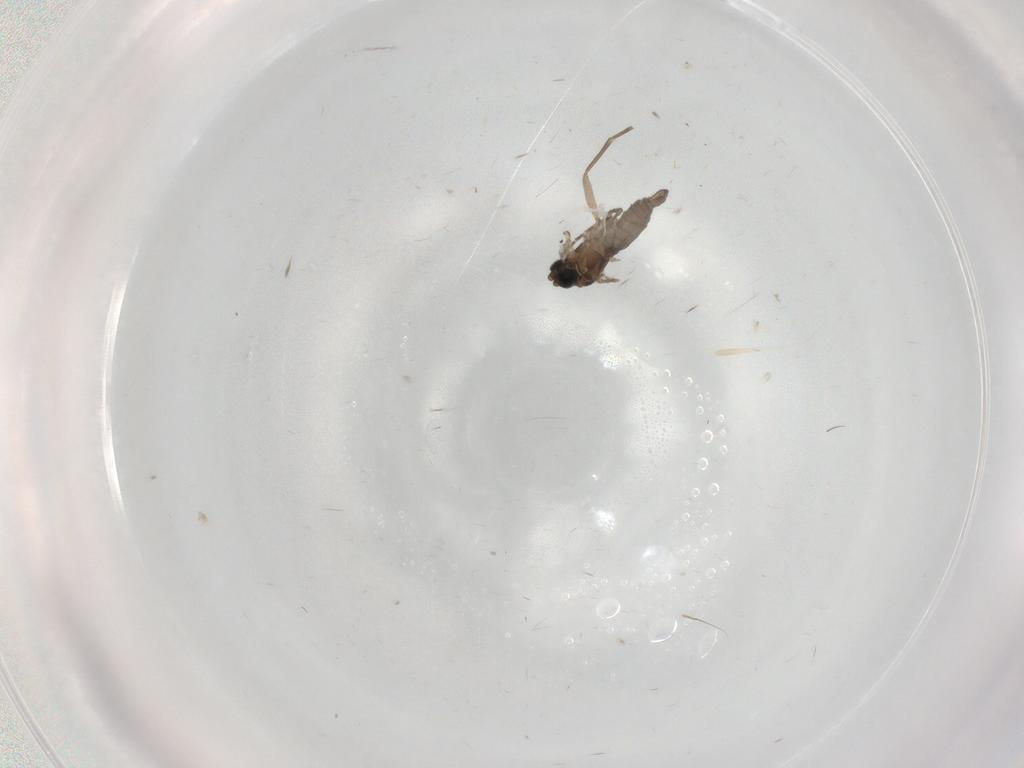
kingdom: Animalia
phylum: Arthropoda
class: Insecta
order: Diptera
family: Sciaridae
